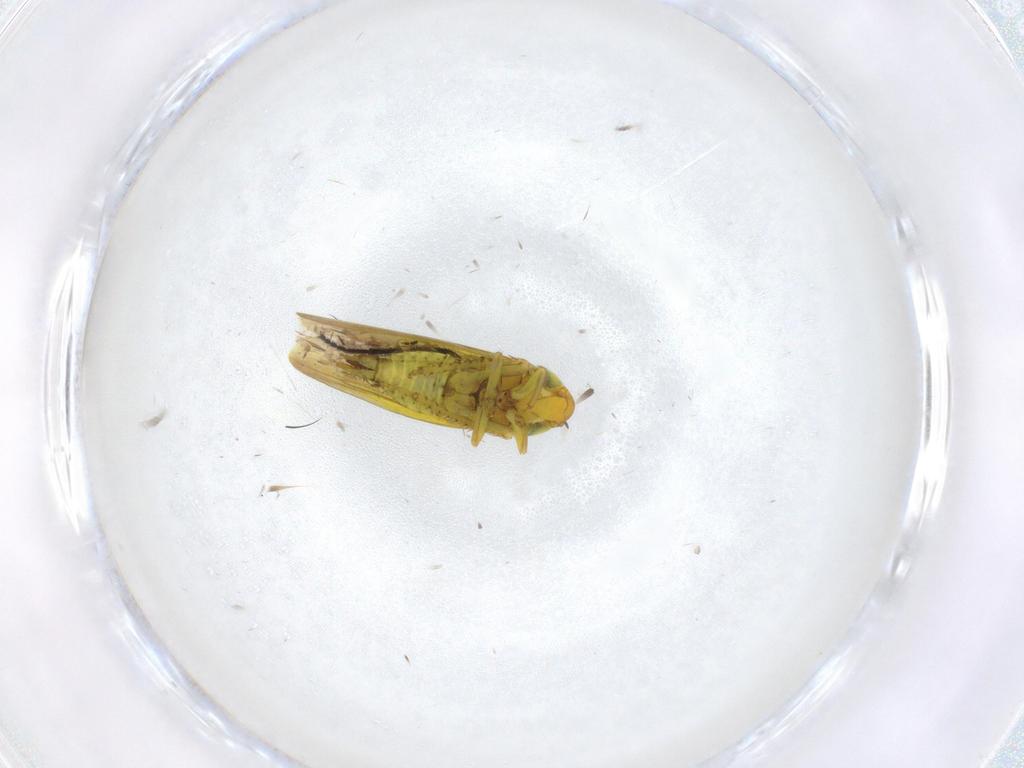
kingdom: Animalia
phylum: Arthropoda
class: Insecta
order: Hemiptera
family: Cicadellidae
